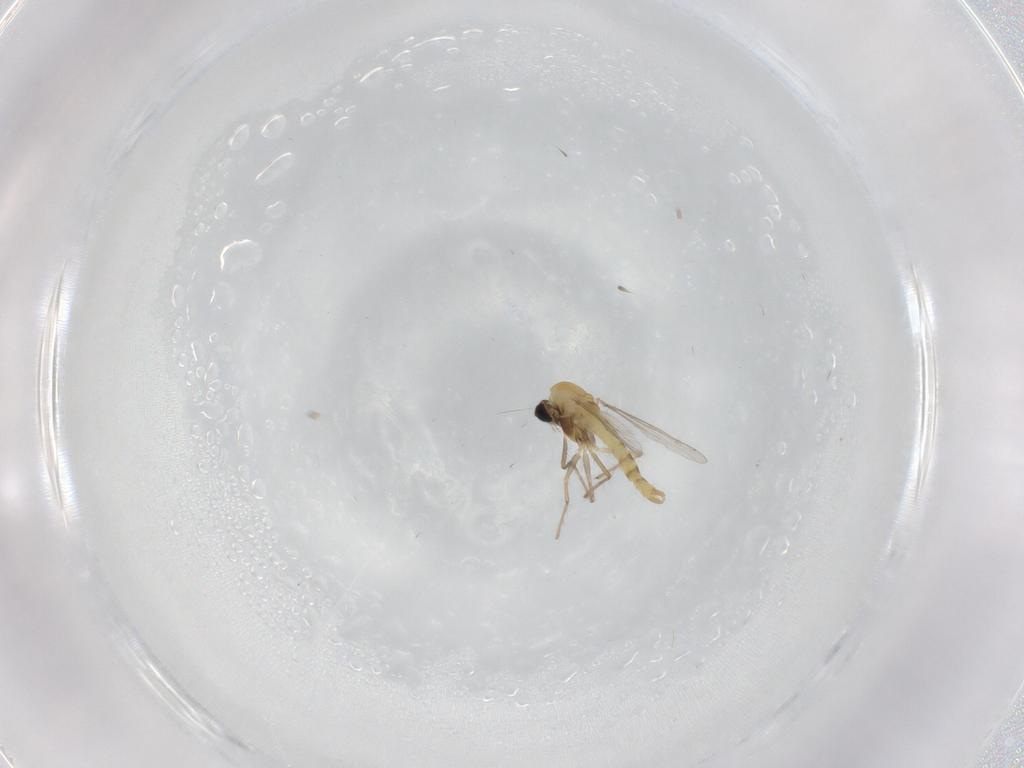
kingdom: Animalia
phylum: Arthropoda
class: Insecta
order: Diptera
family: Chironomidae
